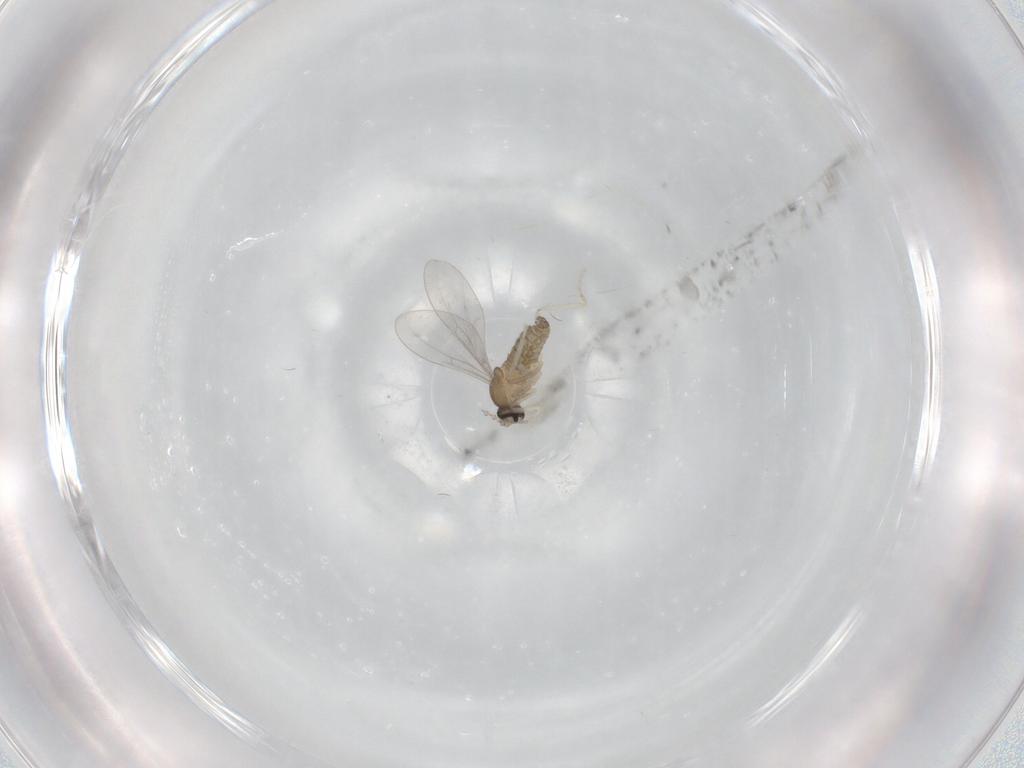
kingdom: Animalia
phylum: Arthropoda
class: Insecta
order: Diptera
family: Cecidomyiidae
